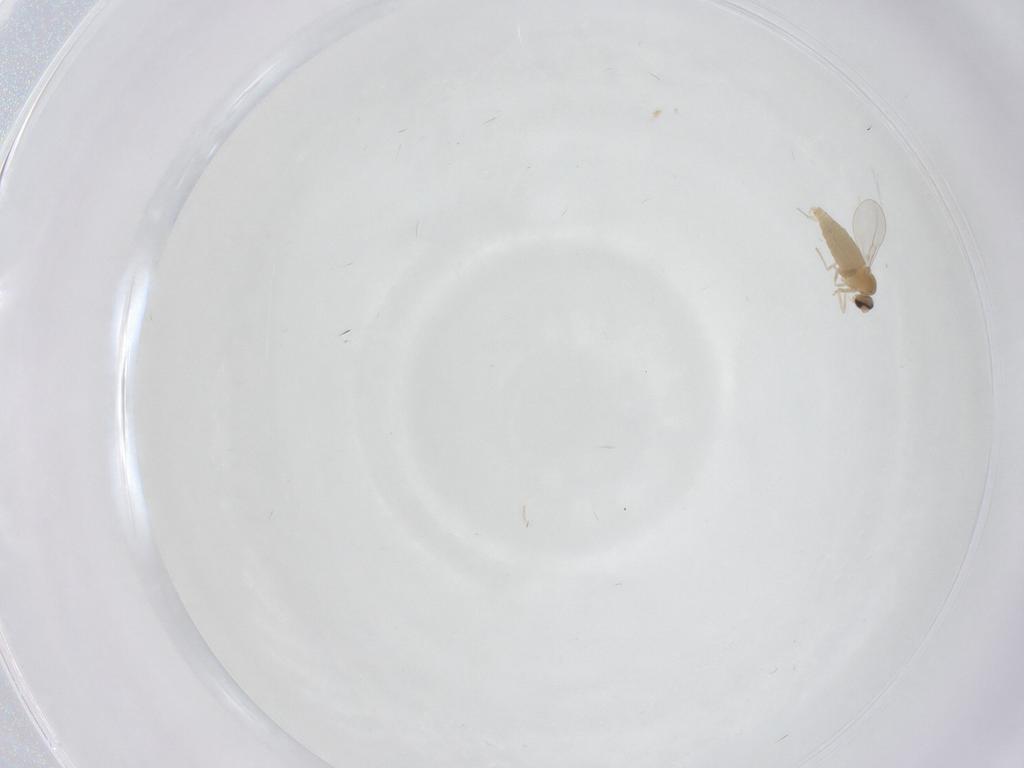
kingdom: Animalia
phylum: Arthropoda
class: Insecta
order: Diptera
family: Cecidomyiidae
